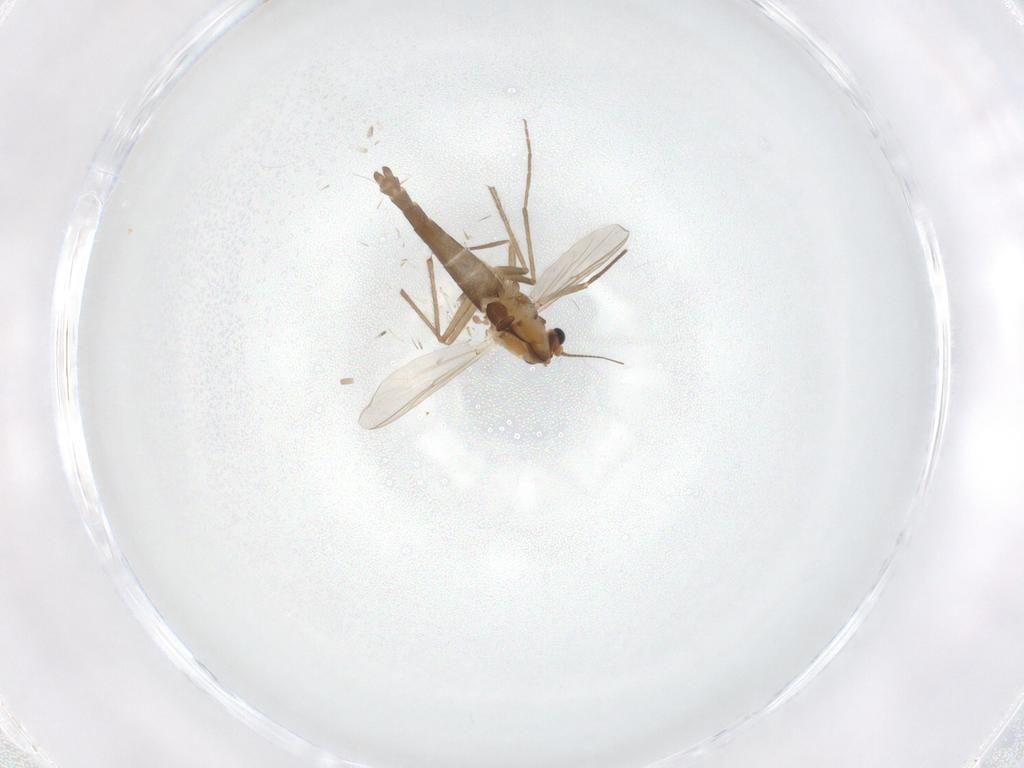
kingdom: Animalia
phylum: Arthropoda
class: Insecta
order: Diptera
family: Chironomidae
